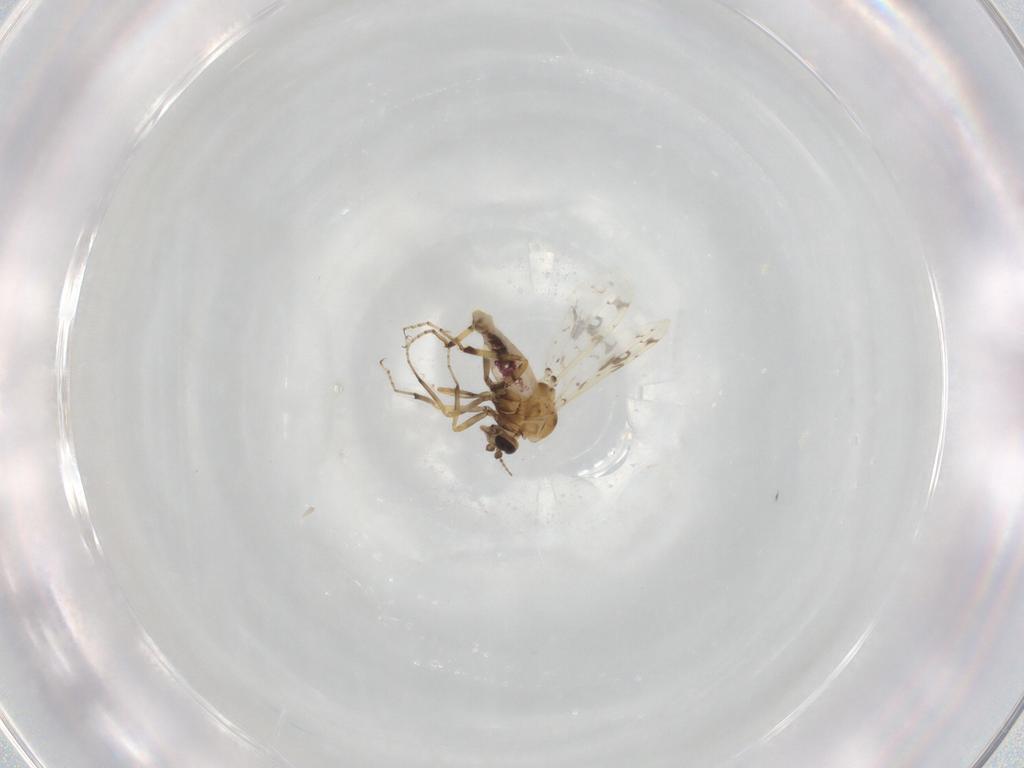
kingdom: Animalia
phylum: Arthropoda
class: Insecta
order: Diptera
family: Ceratopogonidae
